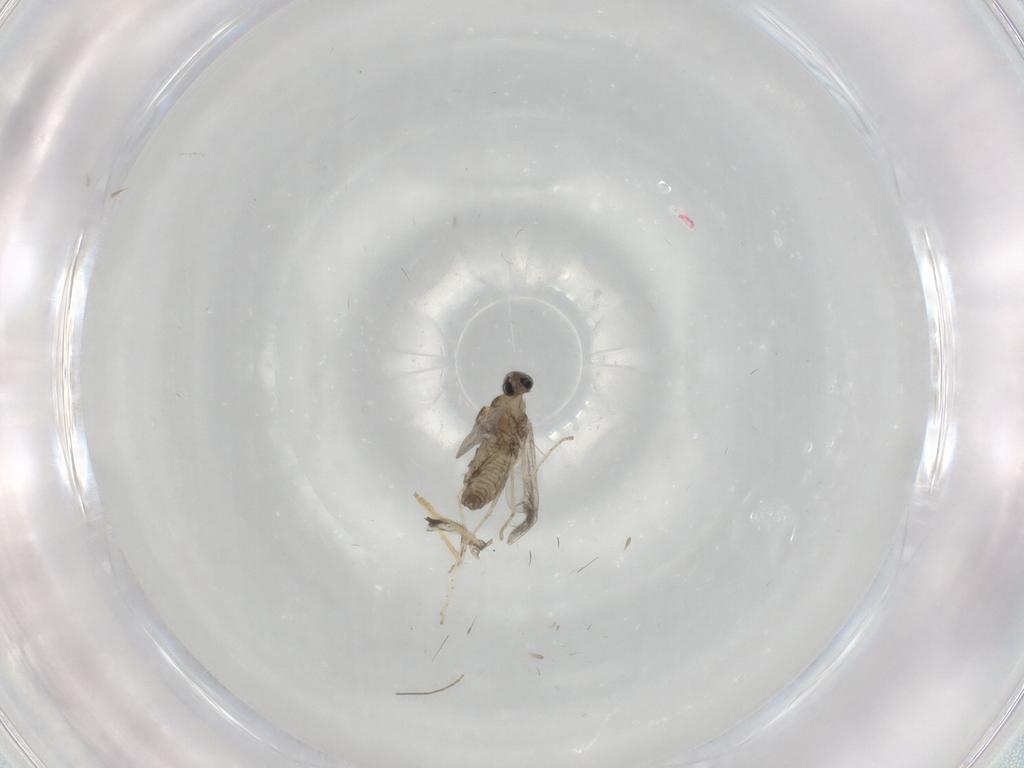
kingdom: Animalia
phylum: Arthropoda
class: Insecta
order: Diptera
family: Cecidomyiidae
